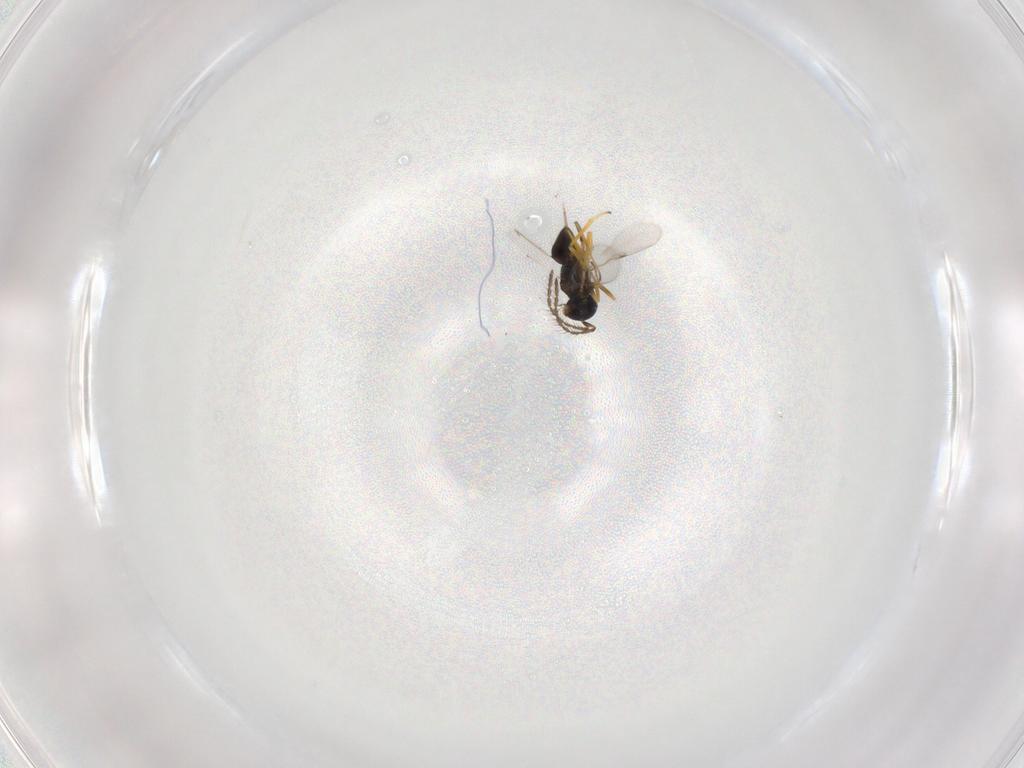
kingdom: Animalia
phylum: Arthropoda
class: Insecta
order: Hymenoptera
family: Encyrtidae
